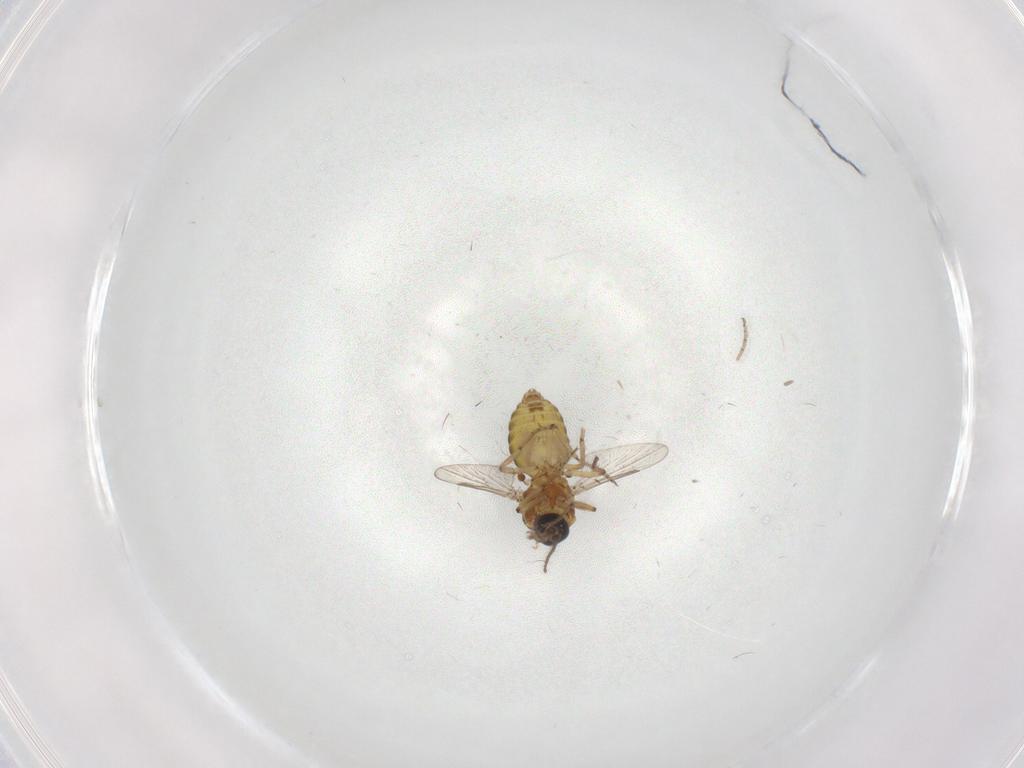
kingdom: Animalia
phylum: Arthropoda
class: Insecta
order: Diptera
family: Ceratopogonidae
